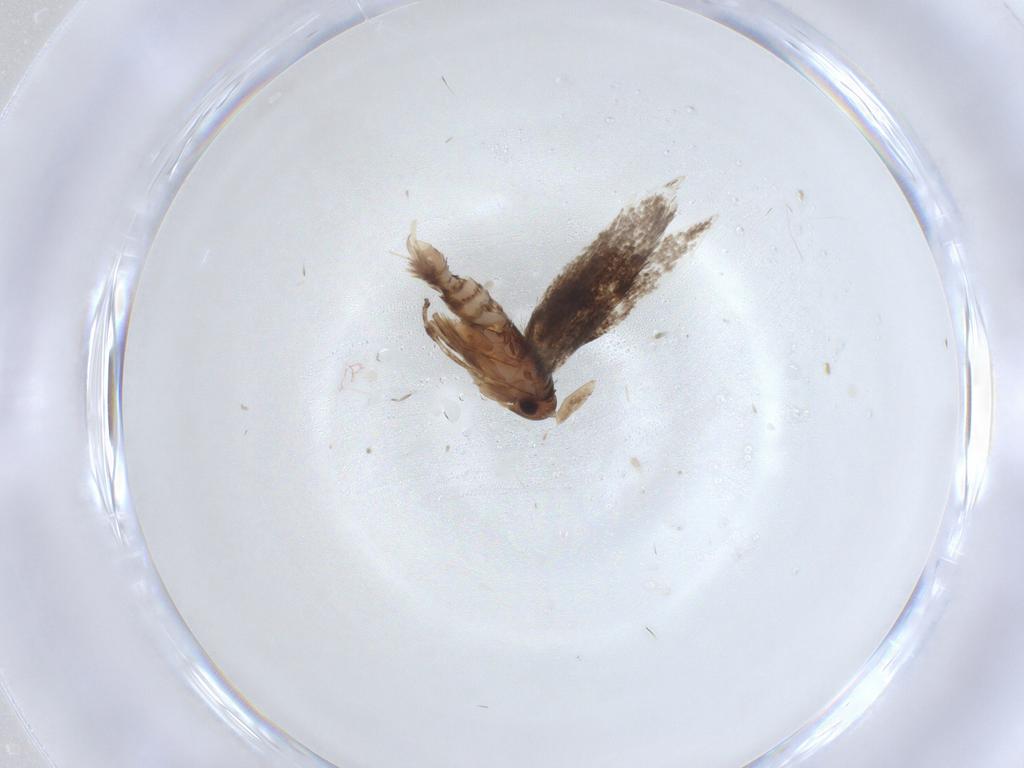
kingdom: Animalia
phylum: Arthropoda
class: Insecta
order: Lepidoptera
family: Elachistidae
